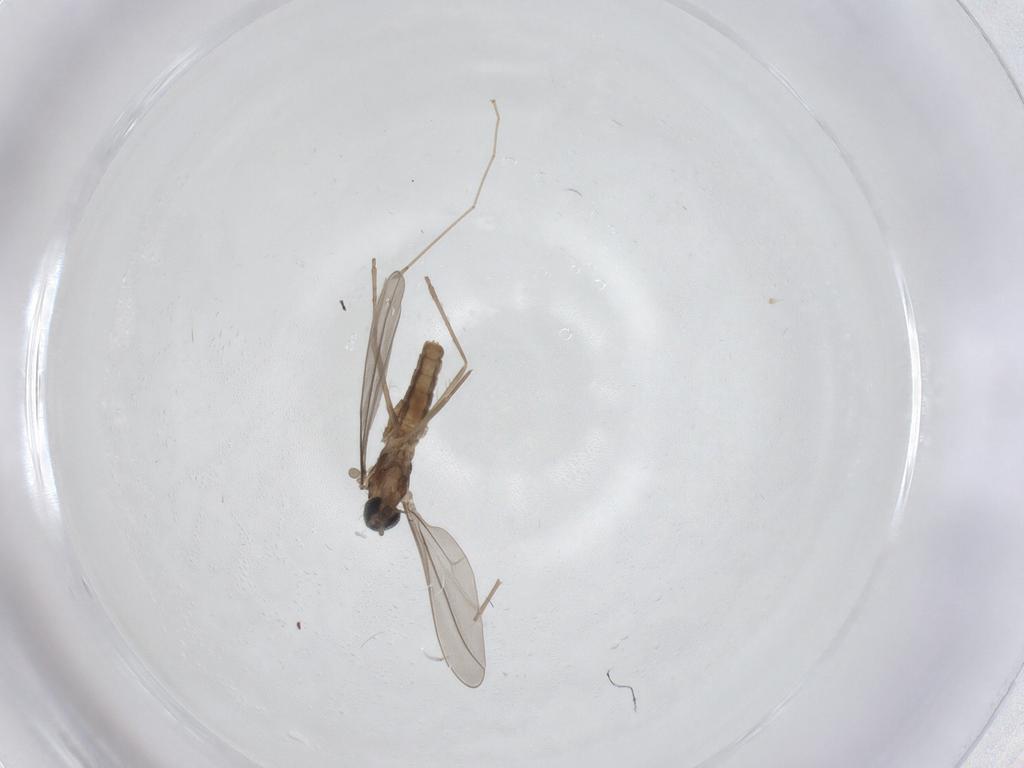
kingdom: Animalia
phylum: Arthropoda
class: Insecta
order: Diptera
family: Cecidomyiidae
